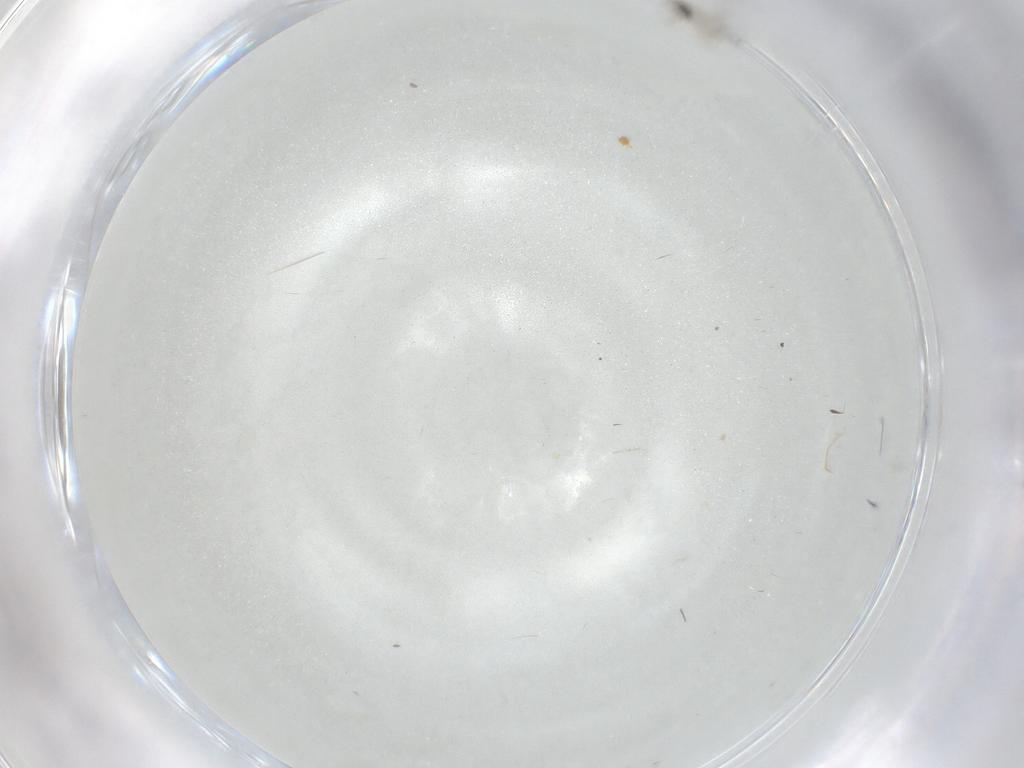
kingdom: Animalia
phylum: Arthropoda
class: Insecta
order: Diptera
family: Cecidomyiidae
